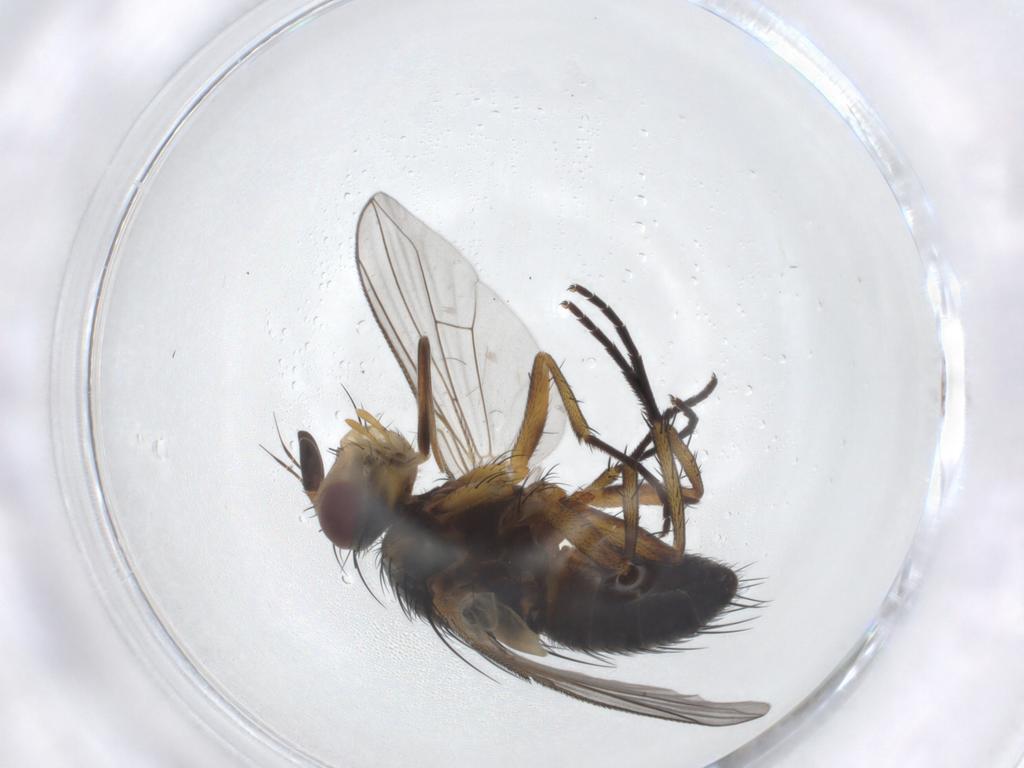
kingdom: Animalia
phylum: Arthropoda
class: Insecta
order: Diptera
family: Tachinidae
